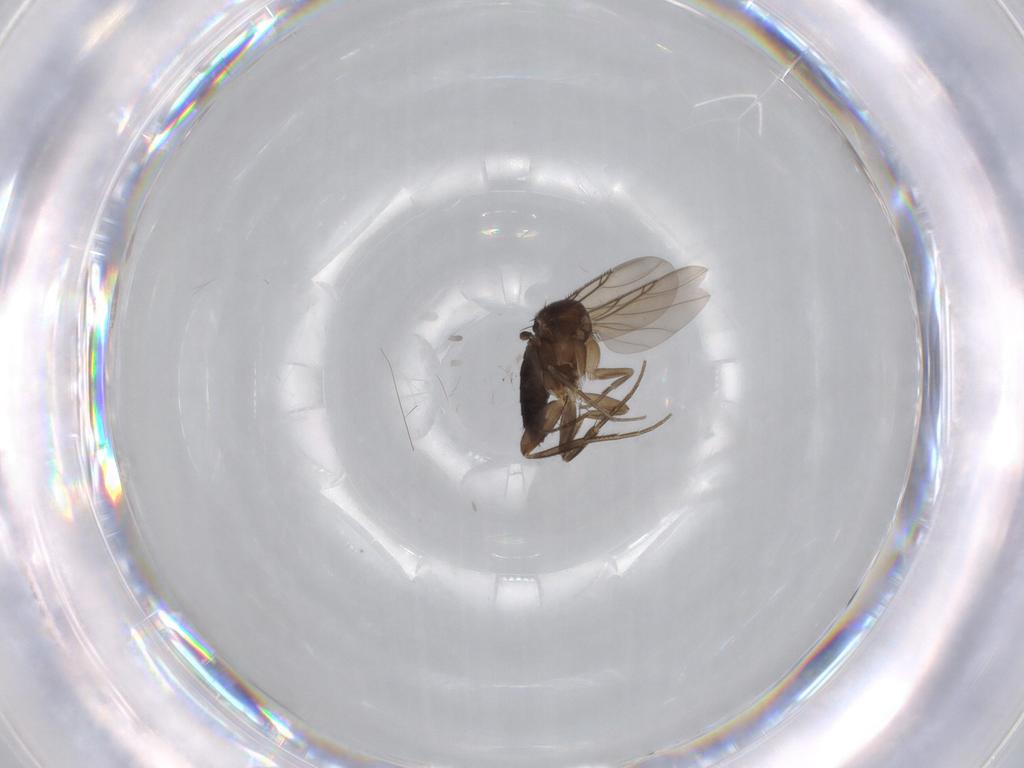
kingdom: Animalia
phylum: Arthropoda
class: Insecta
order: Diptera
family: Phoridae
